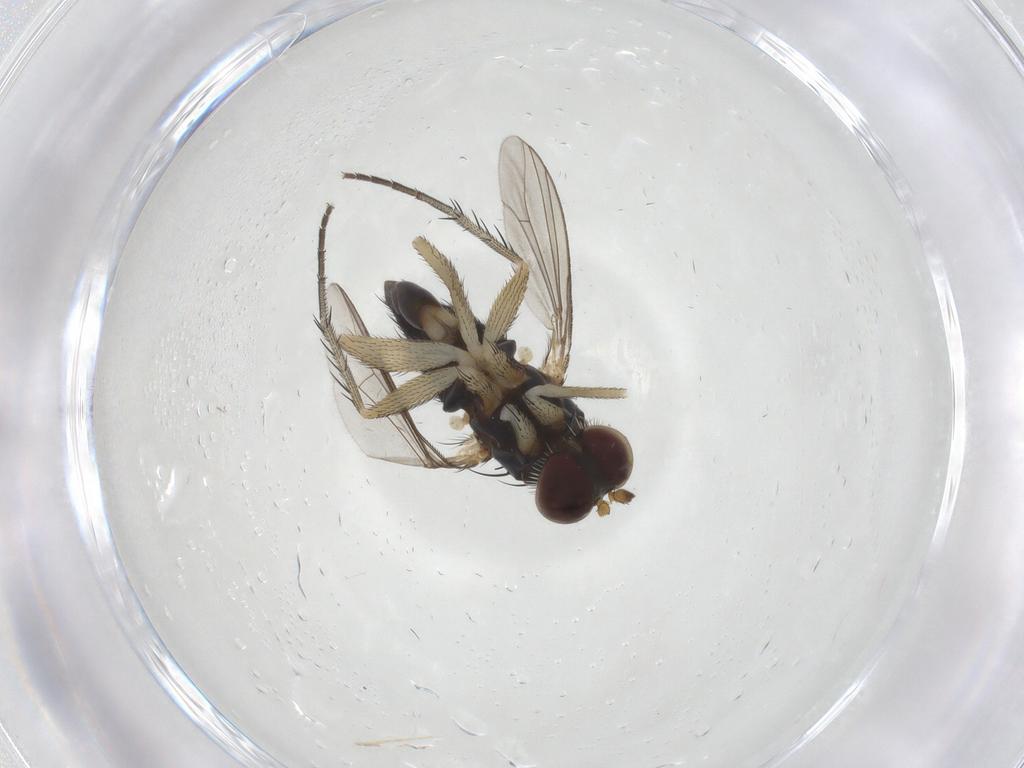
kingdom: Animalia
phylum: Arthropoda
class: Insecta
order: Diptera
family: Dolichopodidae
